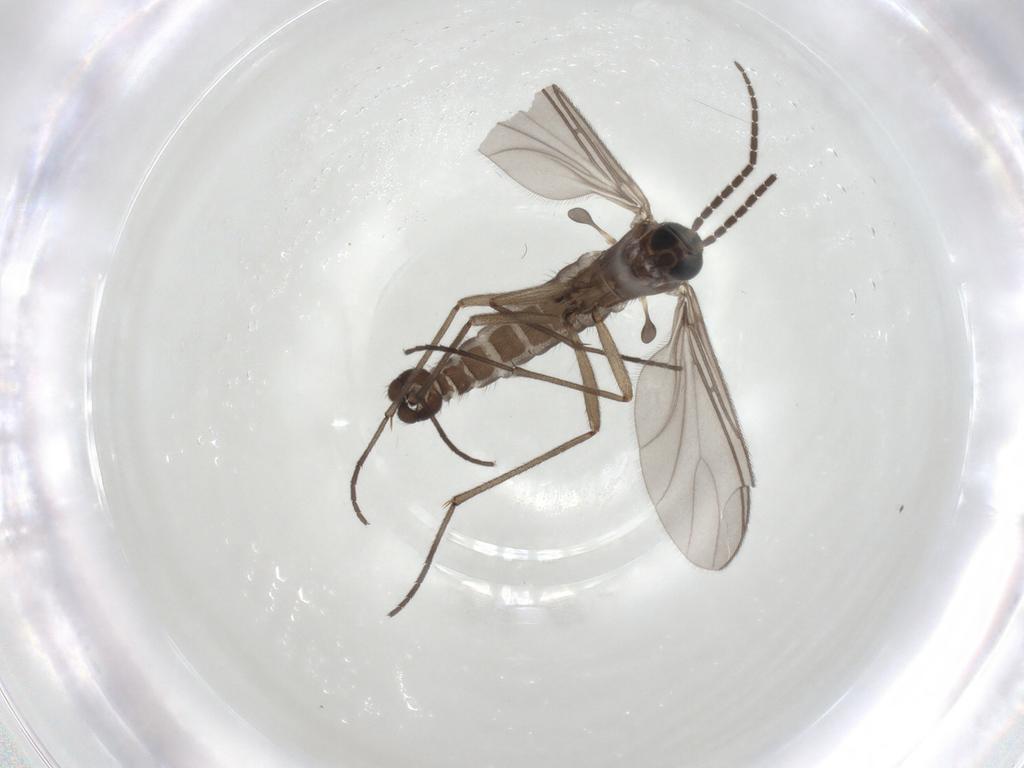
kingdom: Animalia
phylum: Arthropoda
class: Insecta
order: Diptera
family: Sciaridae
